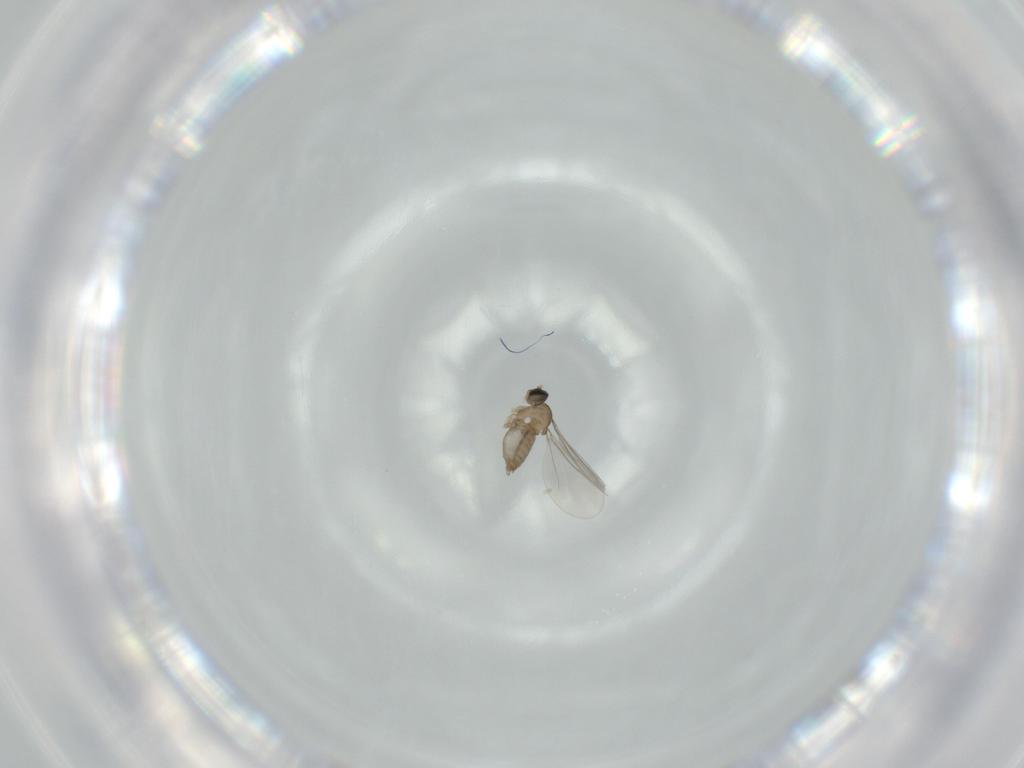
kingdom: Animalia
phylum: Arthropoda
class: Insecta
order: Diptera
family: Cecidomyiidae
